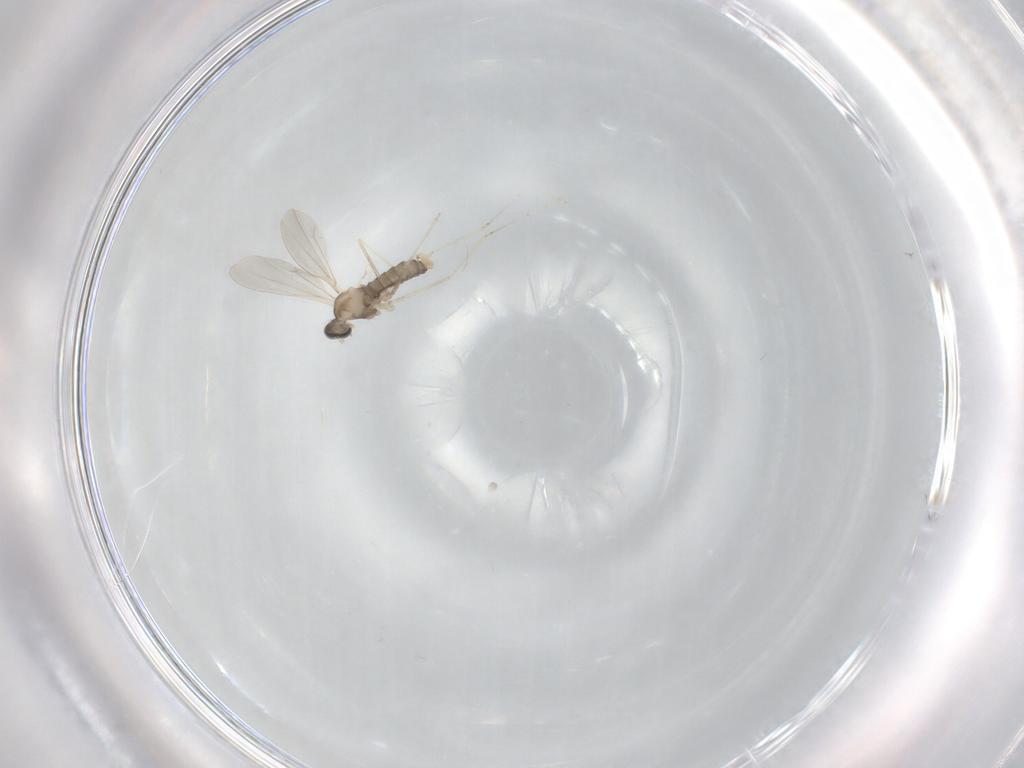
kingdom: Animalia
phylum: Arthropoda
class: Insecta
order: Diptera
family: Cecidomyiidae
